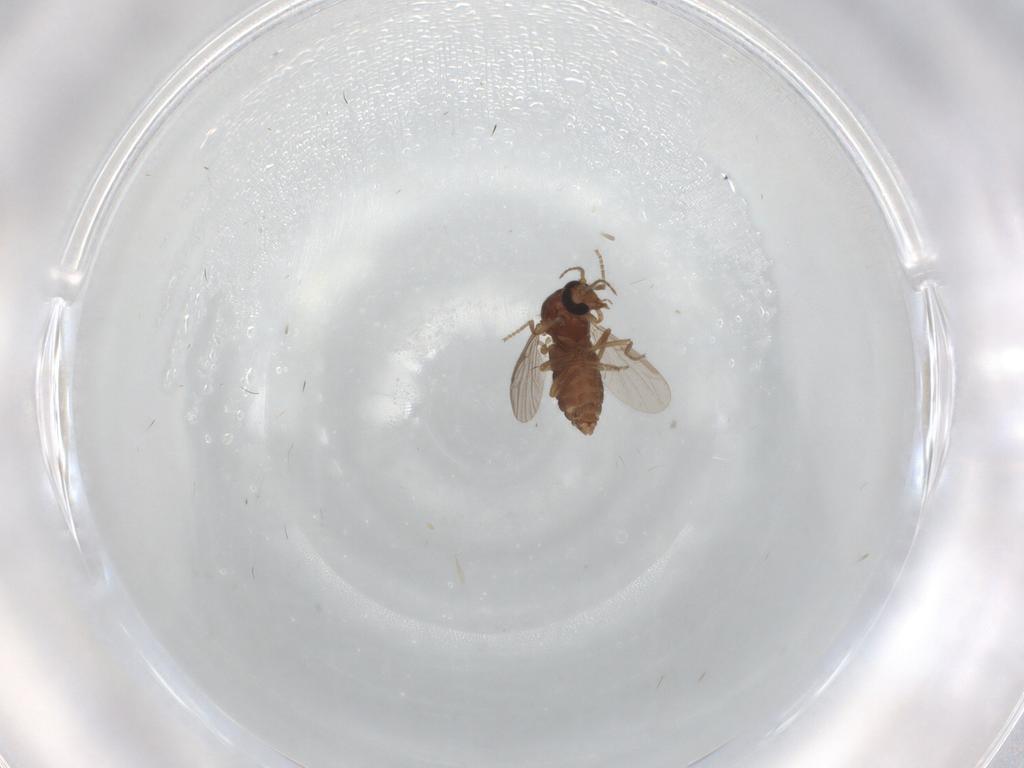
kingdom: Animalia
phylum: Arthropoda
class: Insecta
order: Diptera
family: Ceratopogonidae
